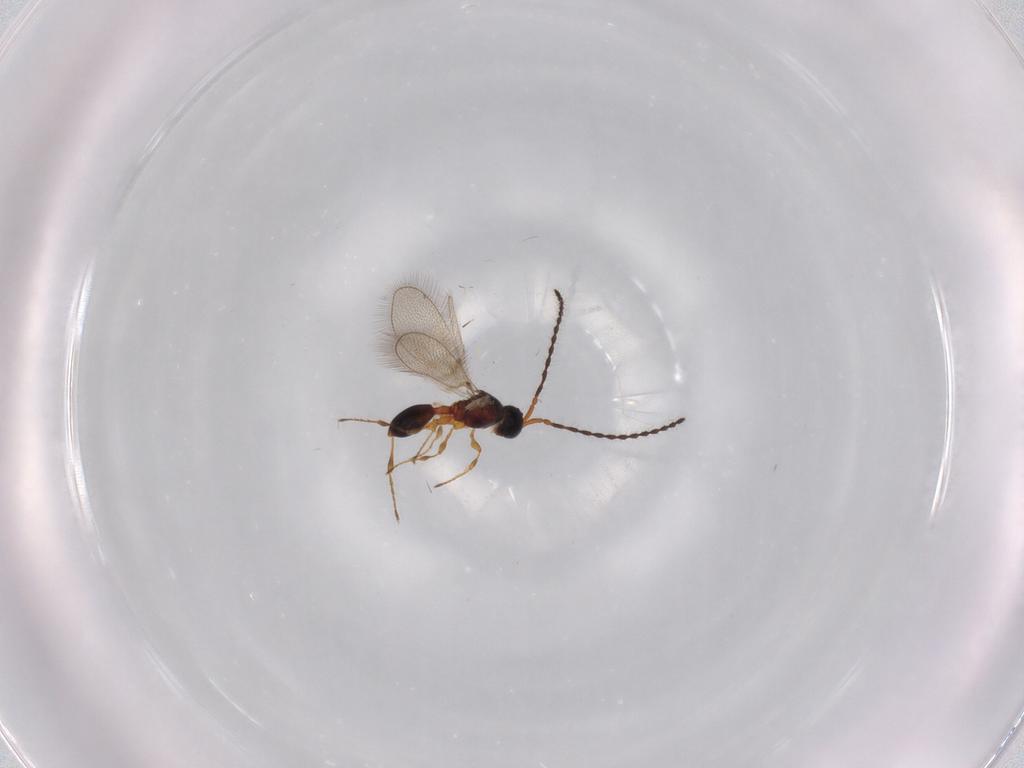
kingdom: Animalia
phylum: Arthropoda
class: Insecta
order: Hymenoptera
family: Diapriidae
